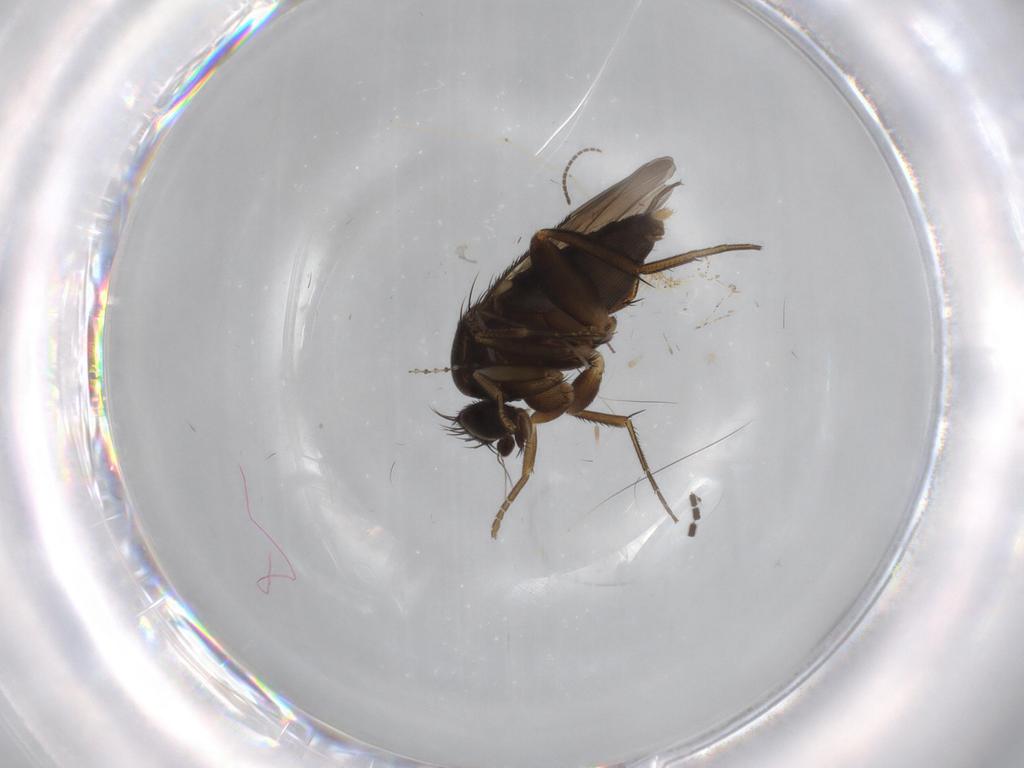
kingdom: Animalia
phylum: Arthropoda
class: Insecta
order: Diptera
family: Phoridae
